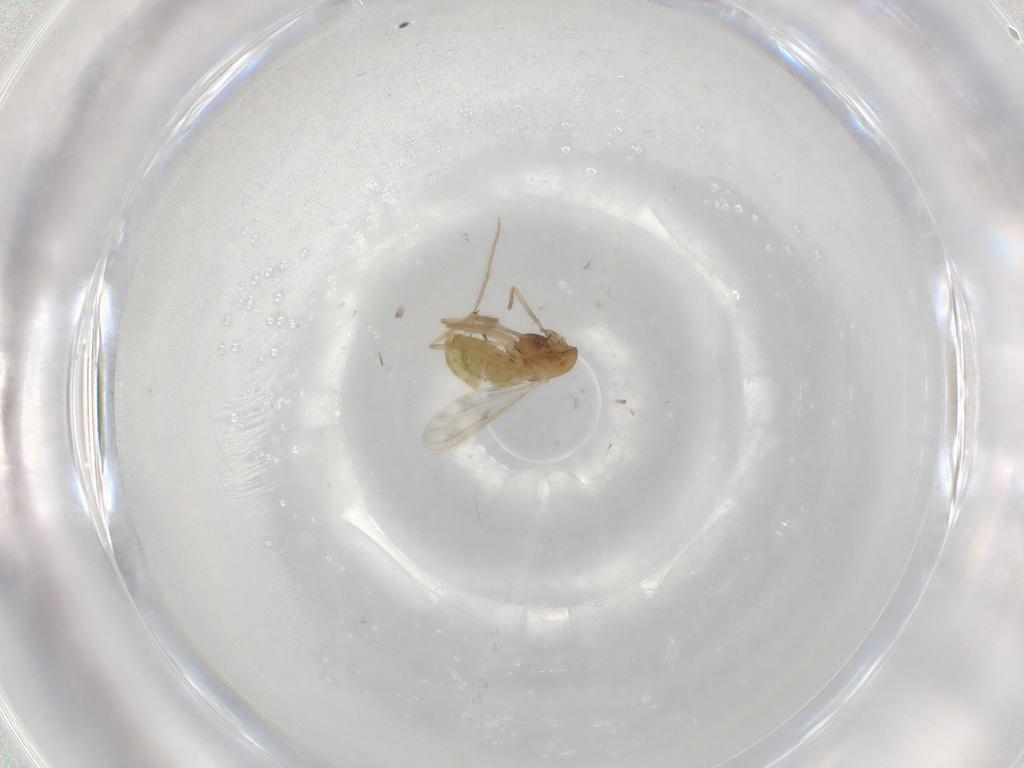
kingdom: Animalia
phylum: Arthropoda
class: Insecta
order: Diptera
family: Chironomidae
